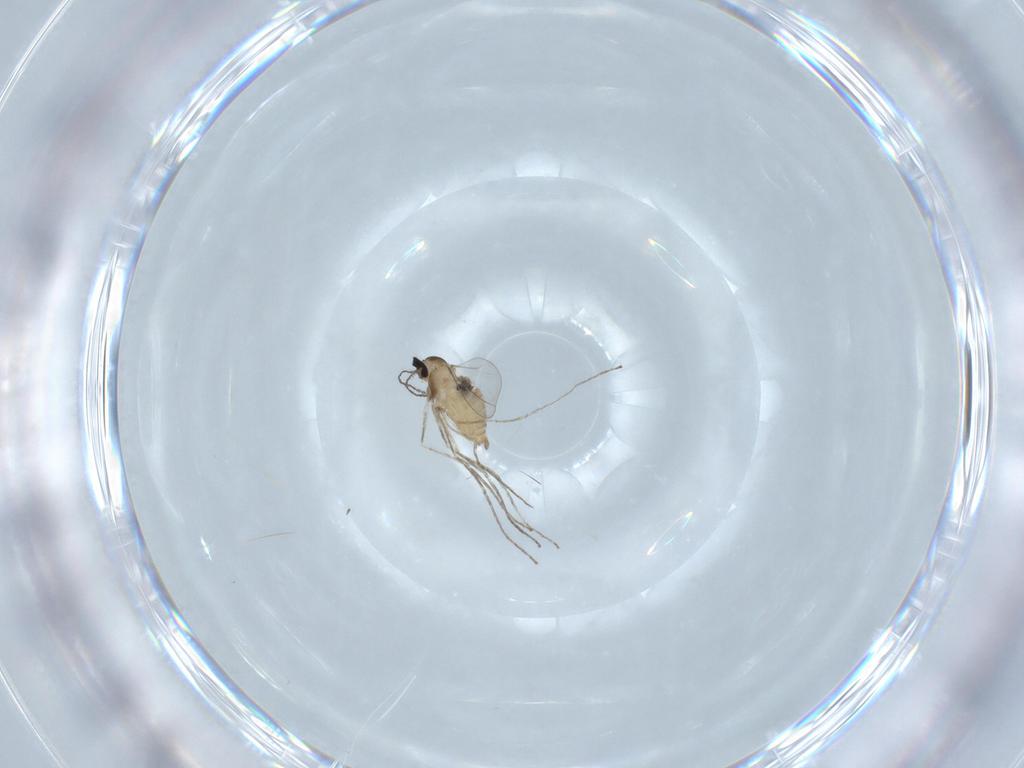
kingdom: Animalia
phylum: Arthropoda
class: Insecta
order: Diptera
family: Cecidomyiidae
